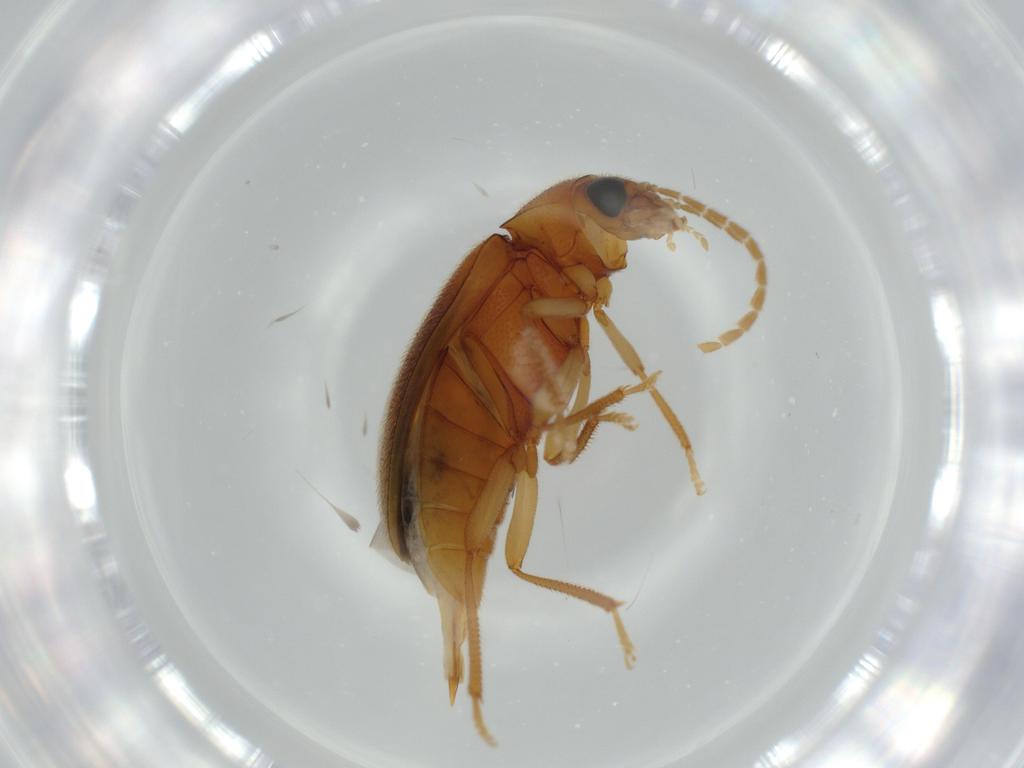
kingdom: Animalia
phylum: Arthropoda
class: Insecta
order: Coleoptera
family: Ptilodactylidae
